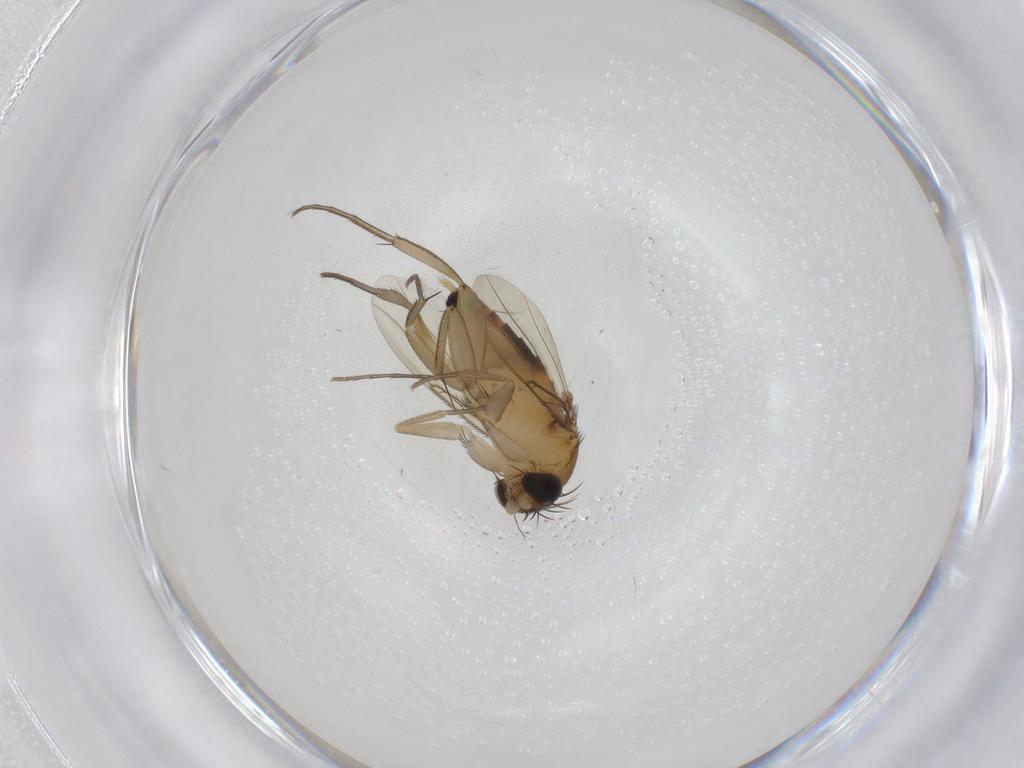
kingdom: Animalia
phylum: Arthropoda
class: Insecta
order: Diptera
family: Phoridae
